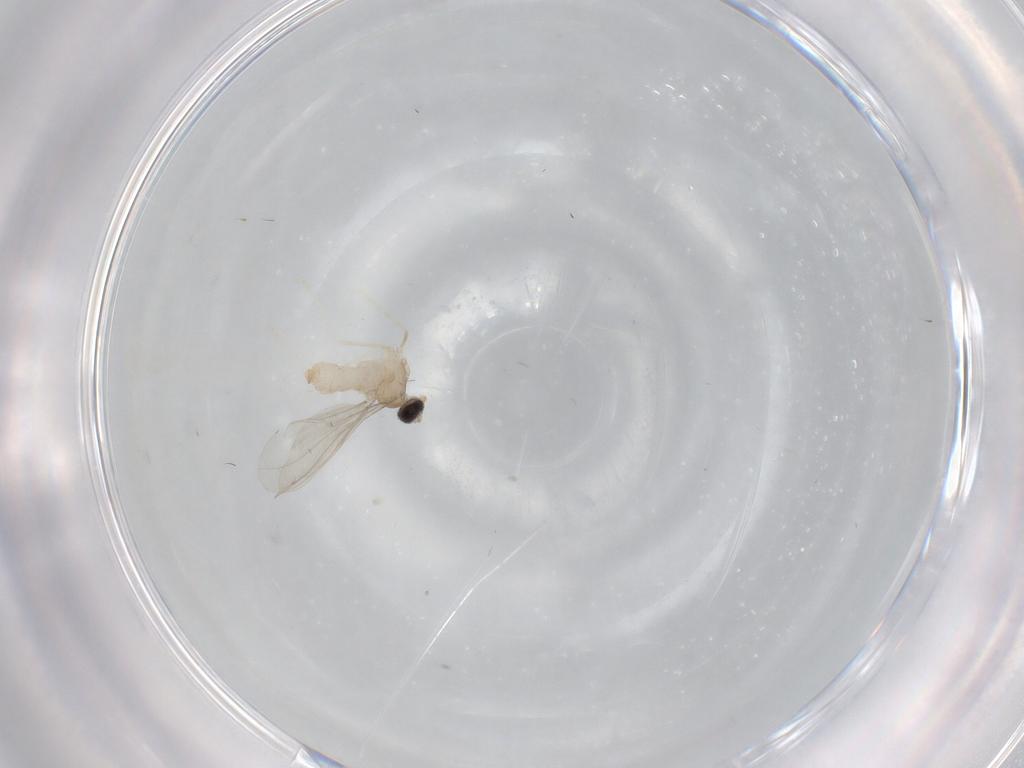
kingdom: Animalia
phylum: Arthropoda
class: Insecta
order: Diptera
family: Cecidomyiidae
